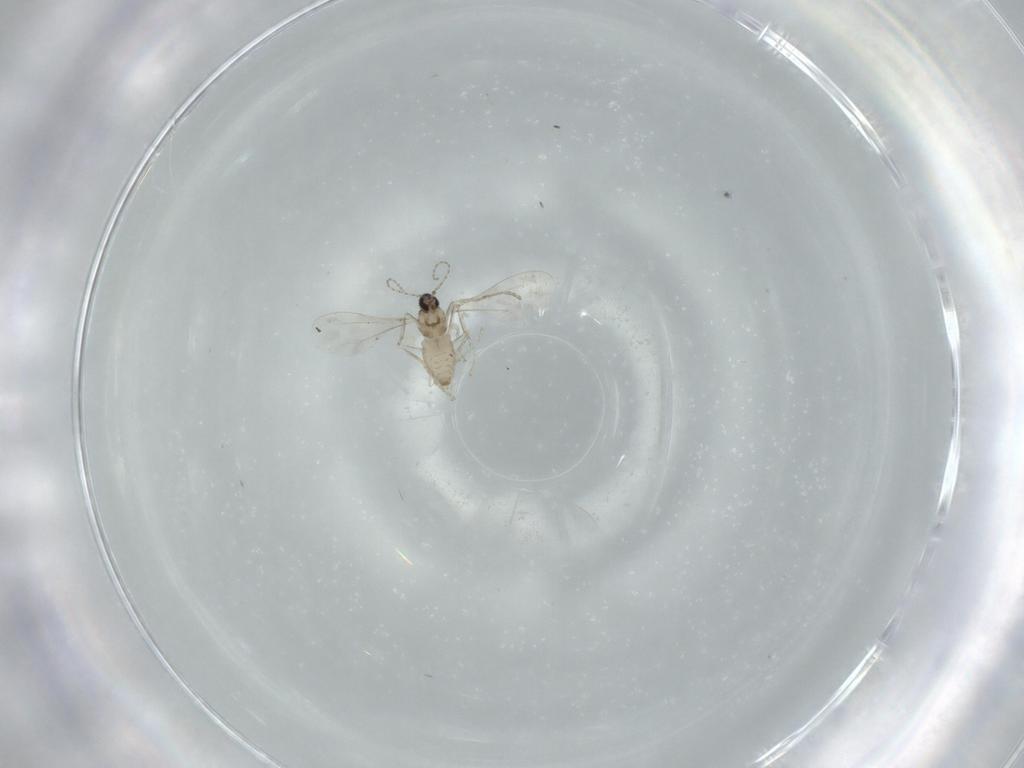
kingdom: Animalia
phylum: Arthropoda
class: Insecta
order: Diptera
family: Cecidomyiidae
